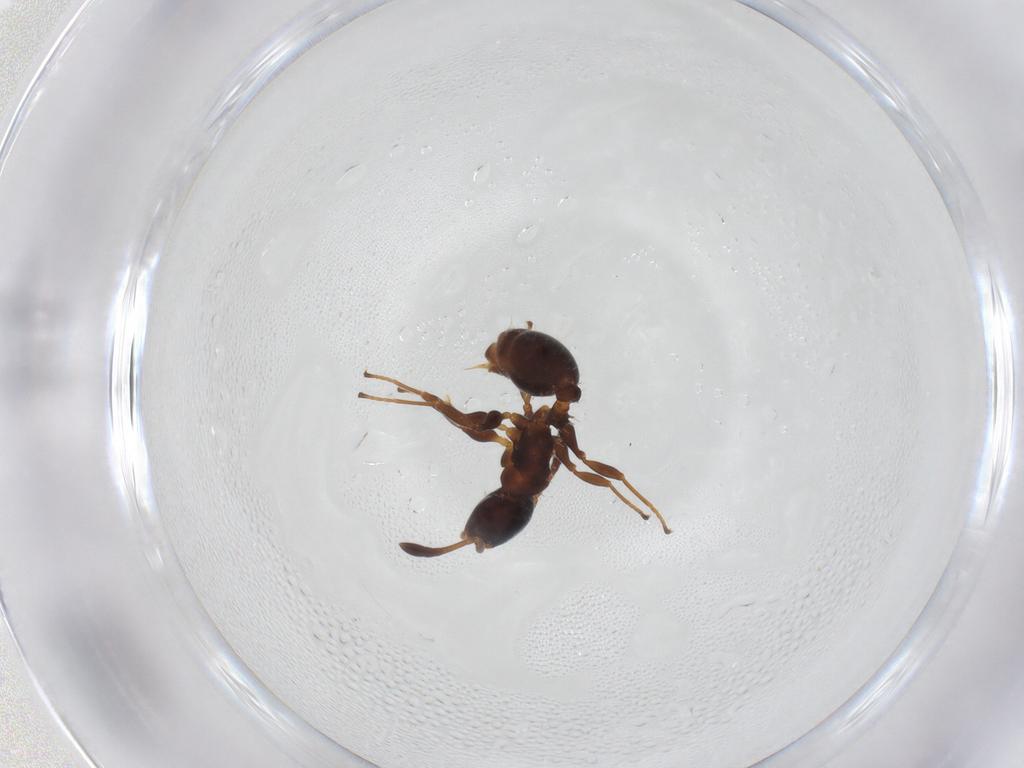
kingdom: Animalia
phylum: Arthropoda
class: Insecta
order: Hymenoptera
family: Formicidae
